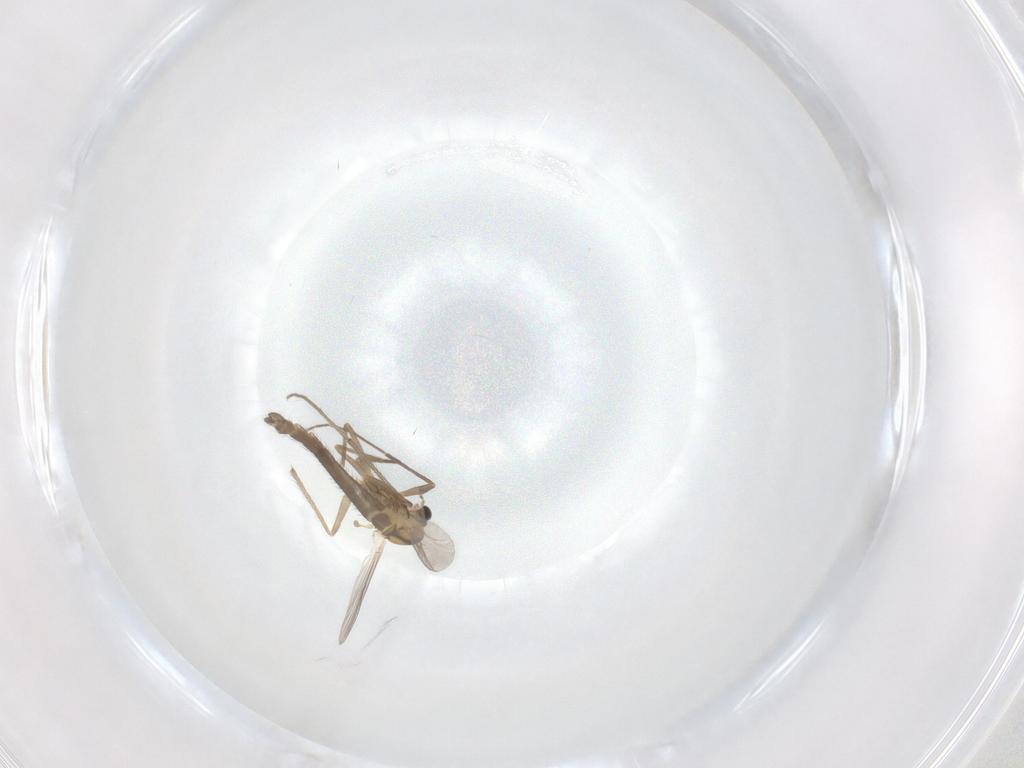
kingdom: Animalia
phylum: Arthropoda
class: Insecta
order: Diptera
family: Chironomidae
